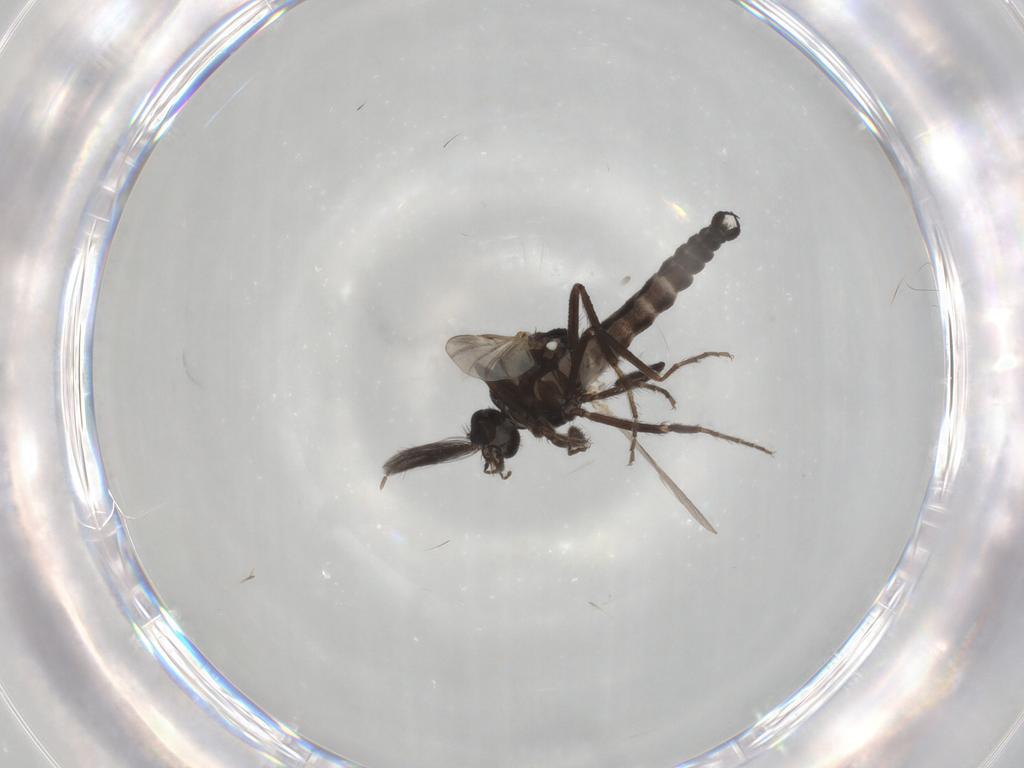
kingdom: Animalia
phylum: Arthropoda
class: Insecta
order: Diptera
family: Ceratopogonidae
